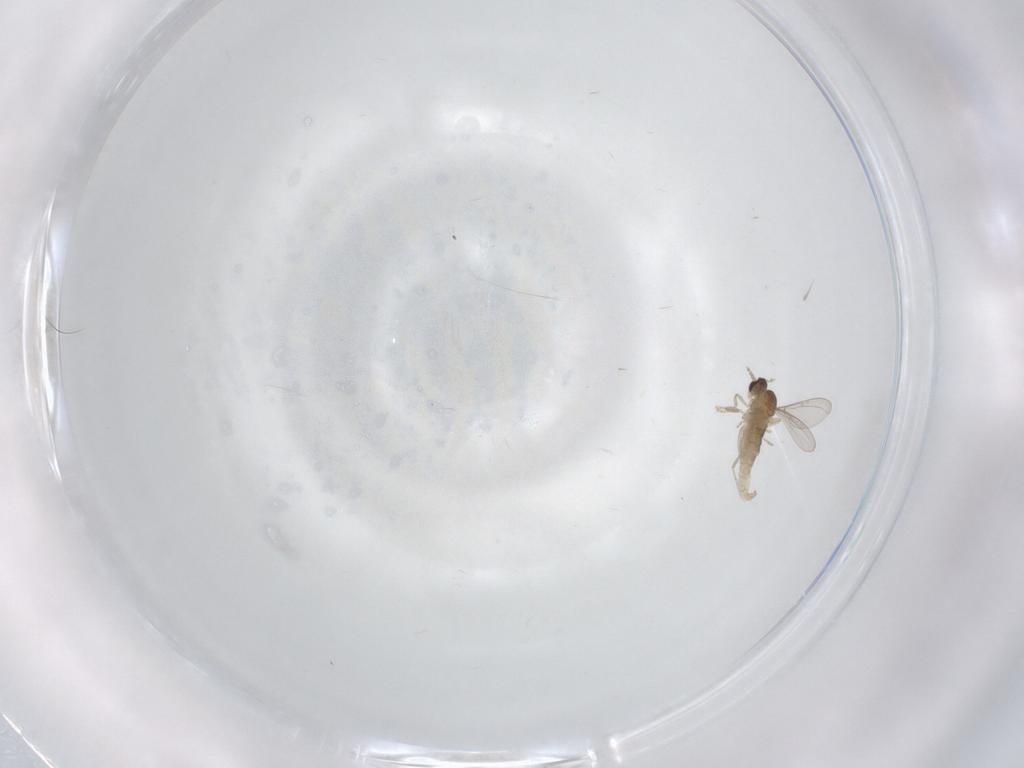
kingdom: Animalia
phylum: Arthropoda
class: Insecta
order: Diptera
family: Cecidomyiidae
